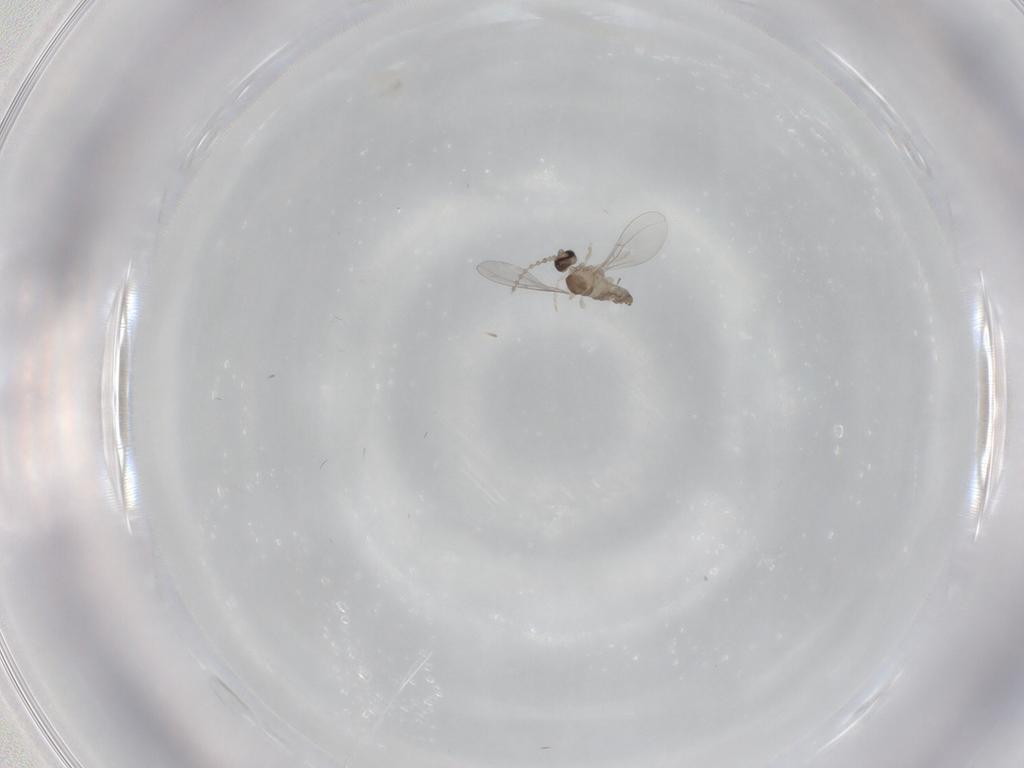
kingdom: Animalia
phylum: Arthropoda
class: Insecta
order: Diptera
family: Cecidomyiidae
